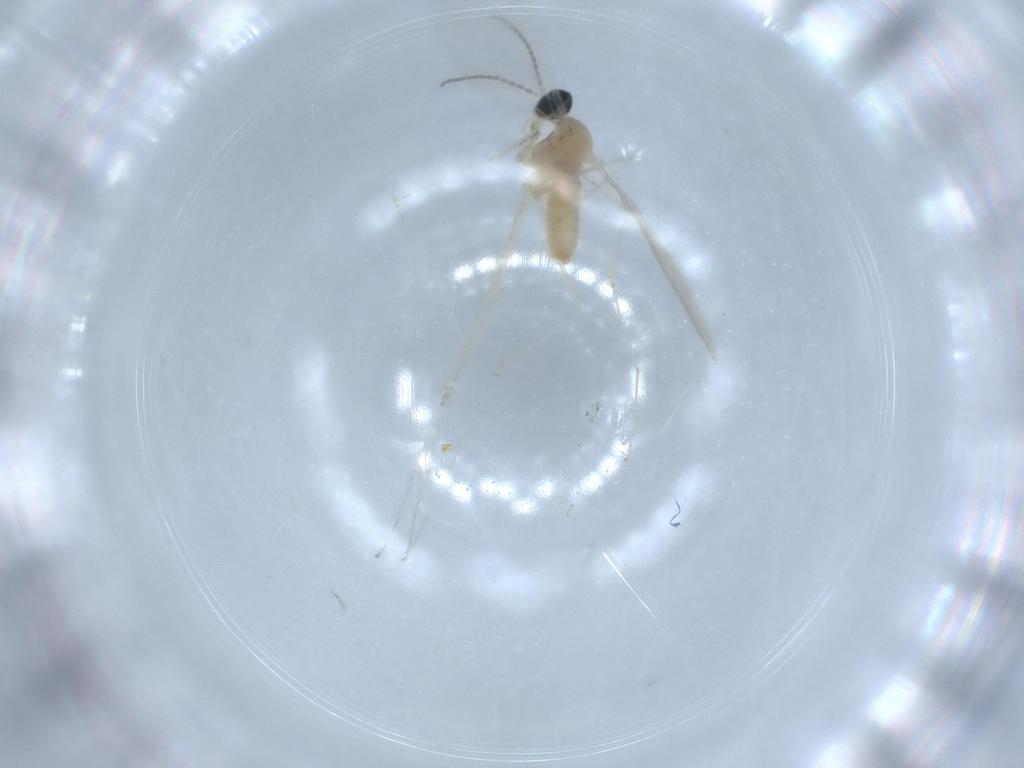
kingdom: Animalia
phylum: Arthropoda
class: Insecta
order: Diptera
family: Cecidomyiidae
